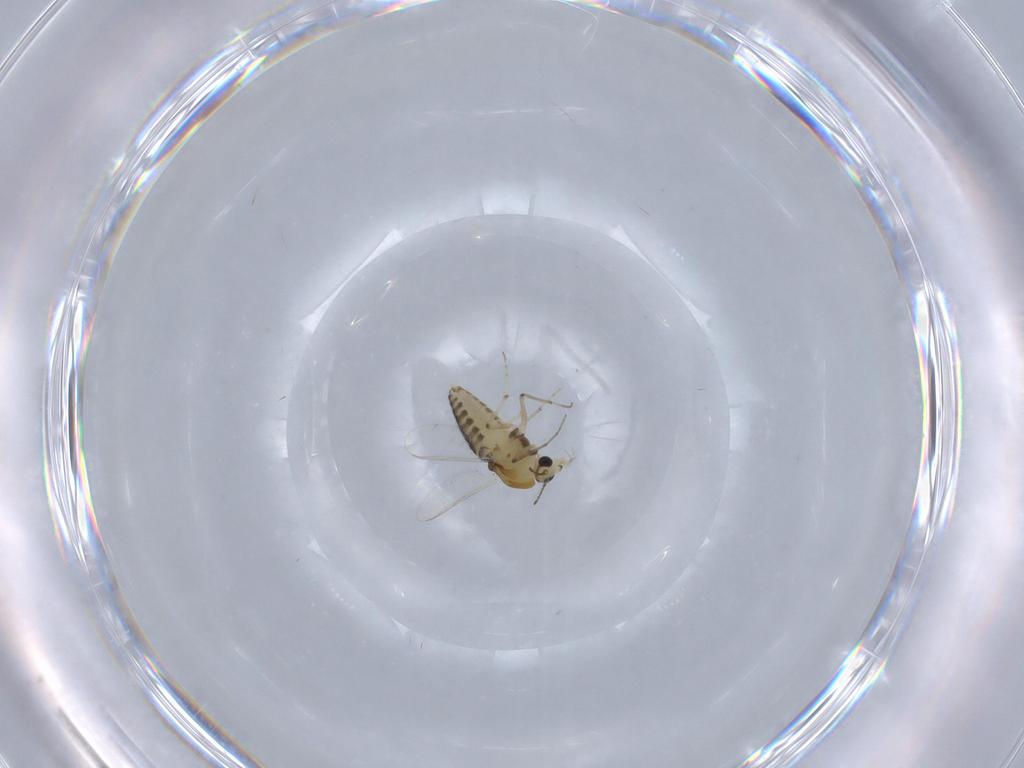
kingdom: Animalia
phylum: Arthropoda
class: Insecta
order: Diptera
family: Chironomidae
